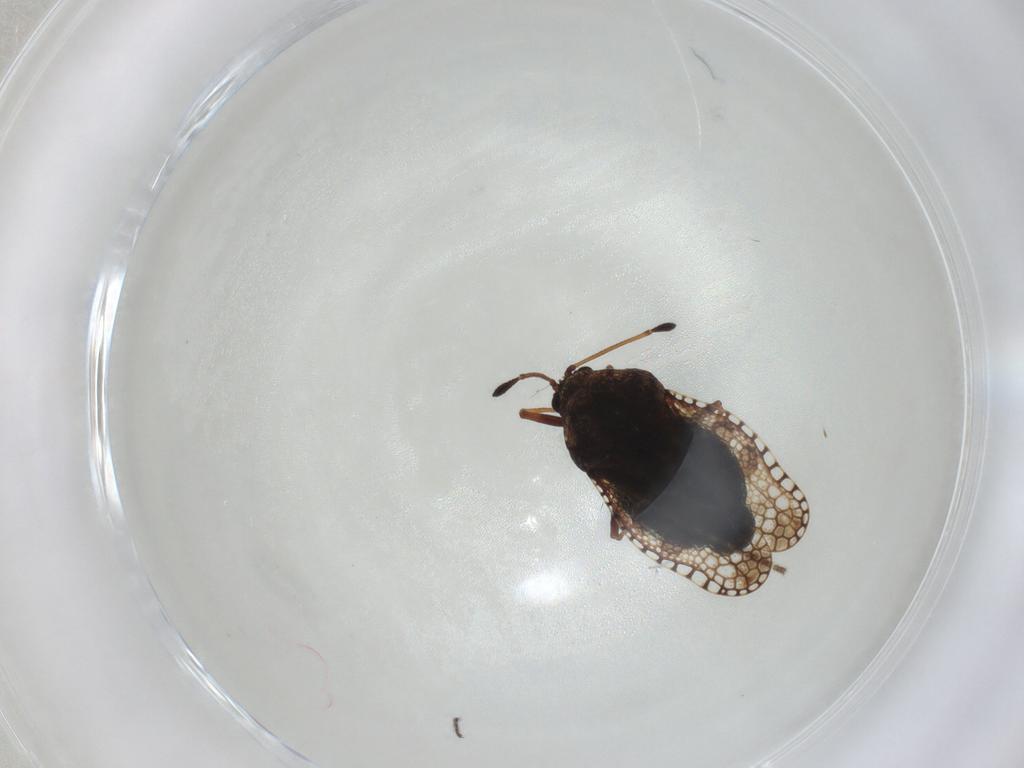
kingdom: Animalia
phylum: Arthropoda
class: Insecta
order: Hemiptera
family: Tingidae
